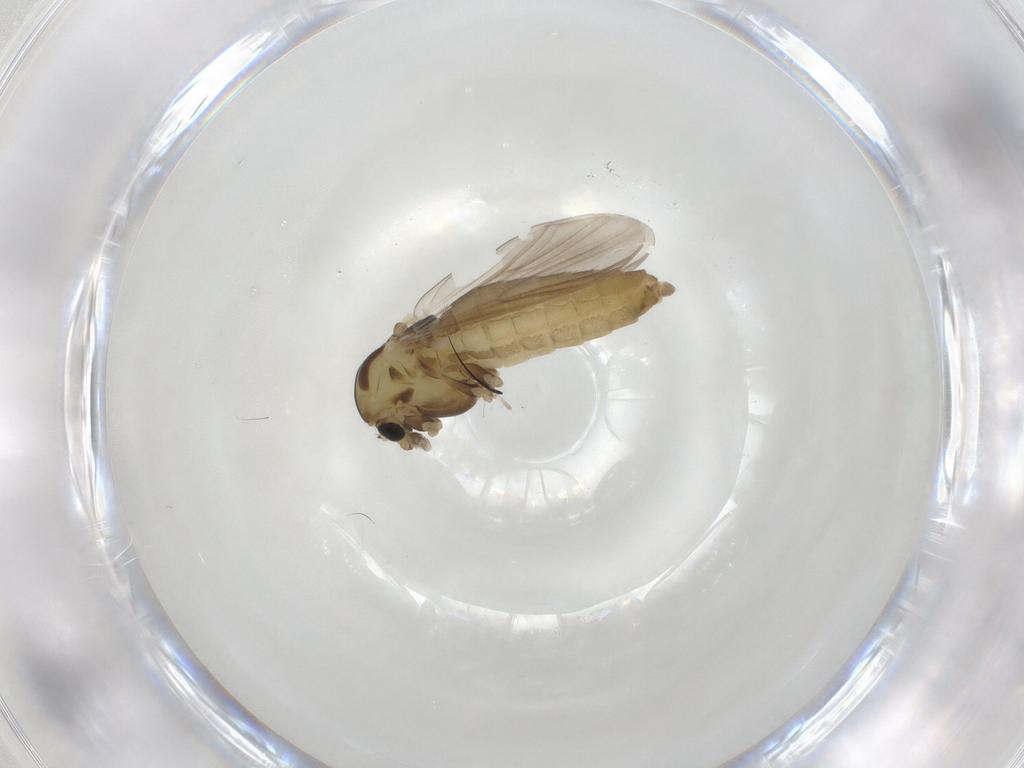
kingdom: Animalia
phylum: Arthropoda
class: Insecta
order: Diptera
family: Chironomidae
